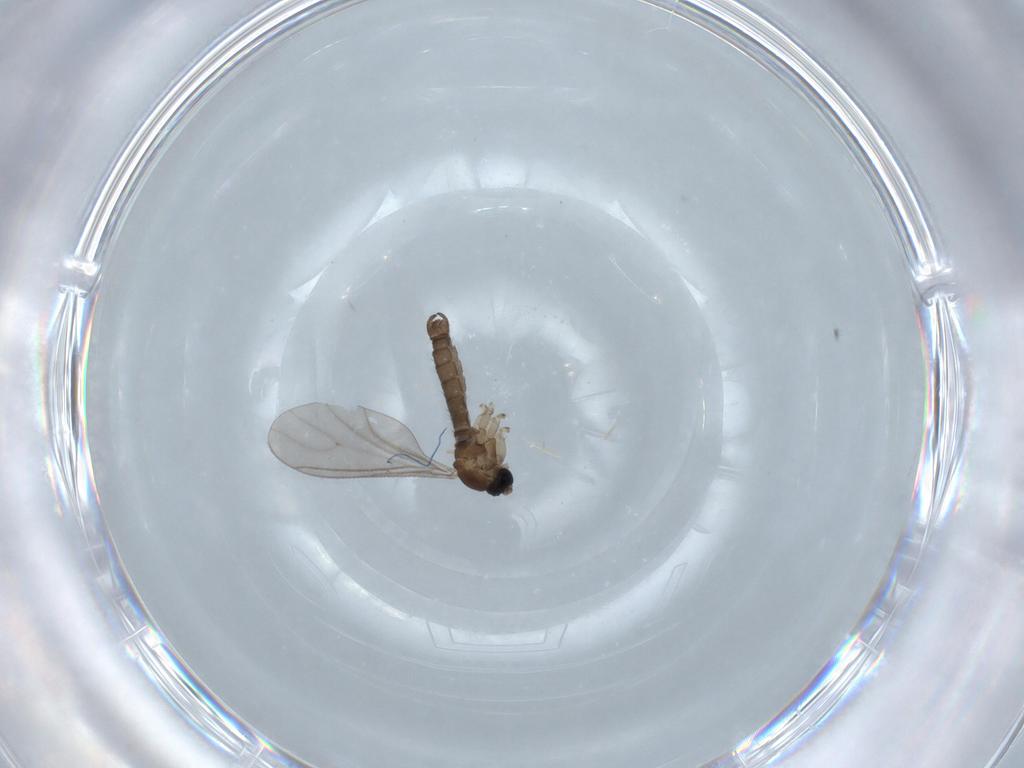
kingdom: Animalia
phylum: Arthropoda
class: Insecta
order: Diptera
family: Sciaridae
